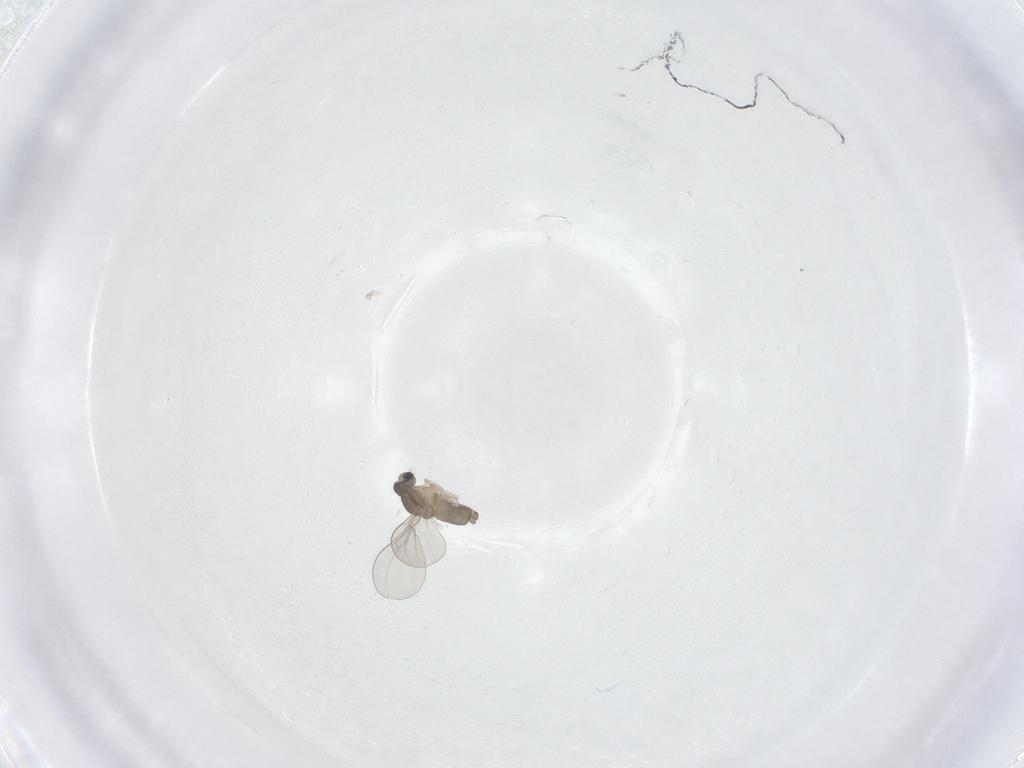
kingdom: Animalia
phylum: Arthropoda
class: Insecta
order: Diptera
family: Cecidomyiidae
